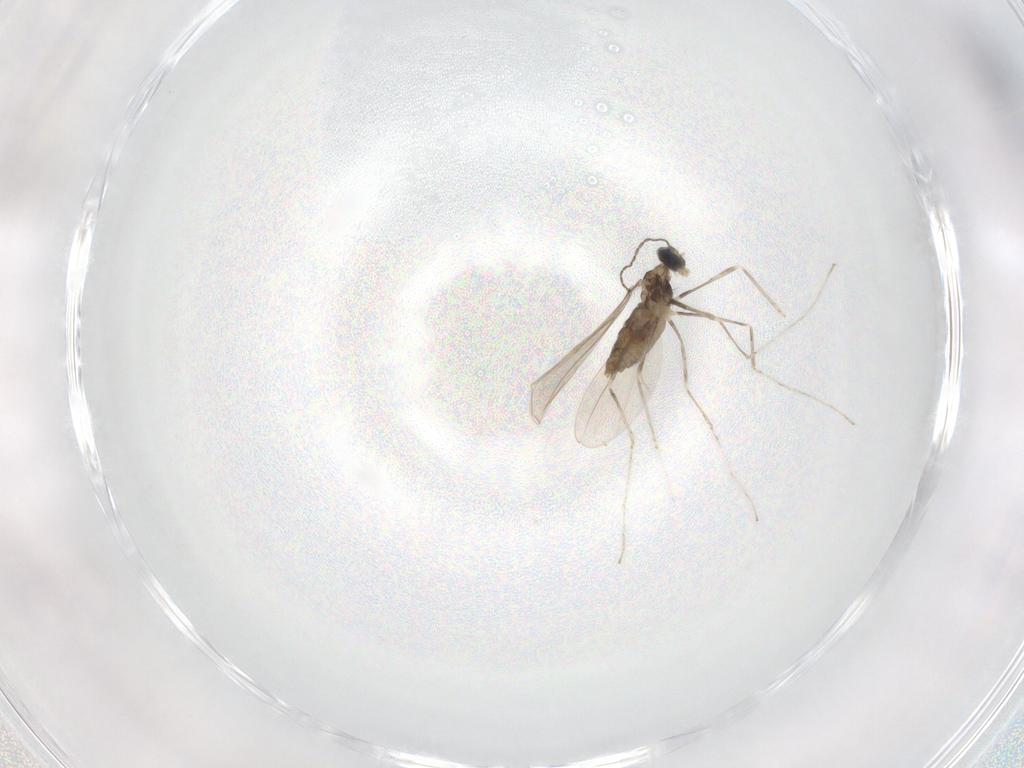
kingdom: Animalia
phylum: Arthropoda
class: Insecta
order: Diptera
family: Cecidomyiidae
